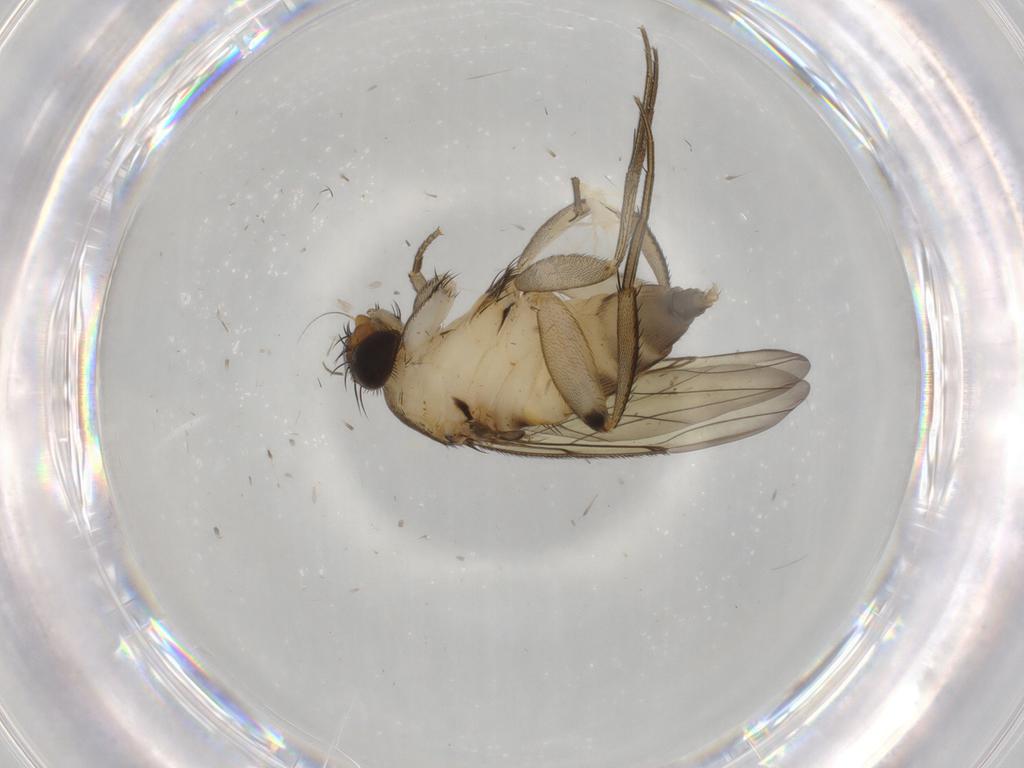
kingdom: Animalia
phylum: Arthropoda
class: Insecta
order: Diptera
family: Phoridae
